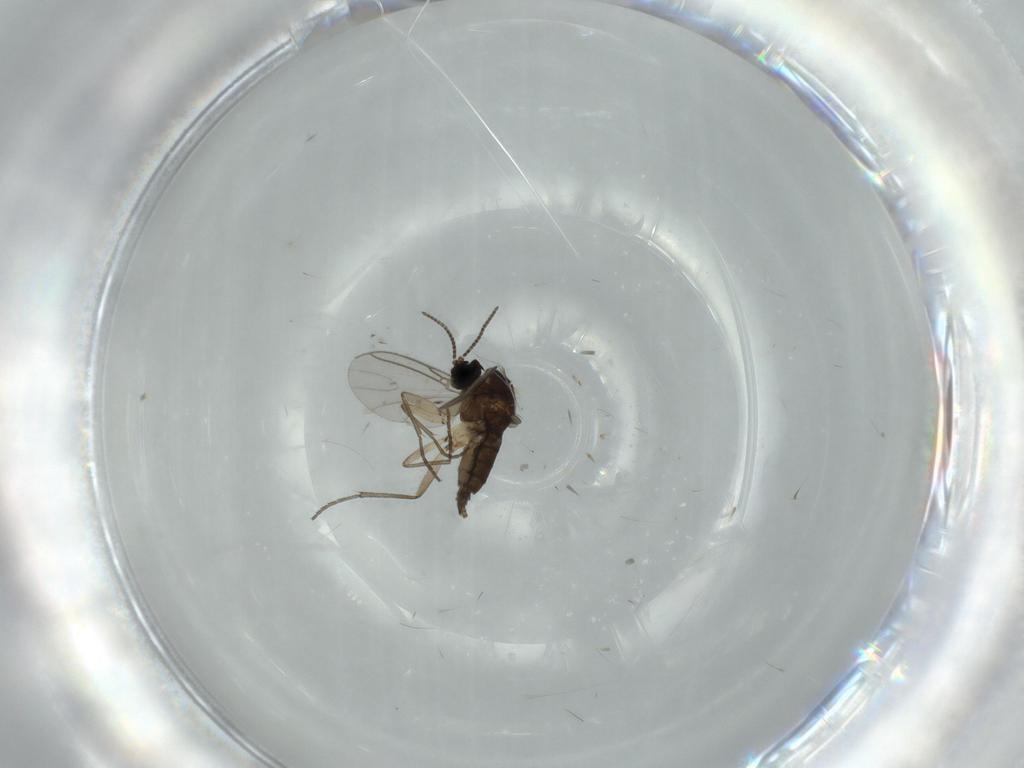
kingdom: Animalia
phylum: Arthropoda
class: Insecta
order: Diptera
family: Sciaridae
